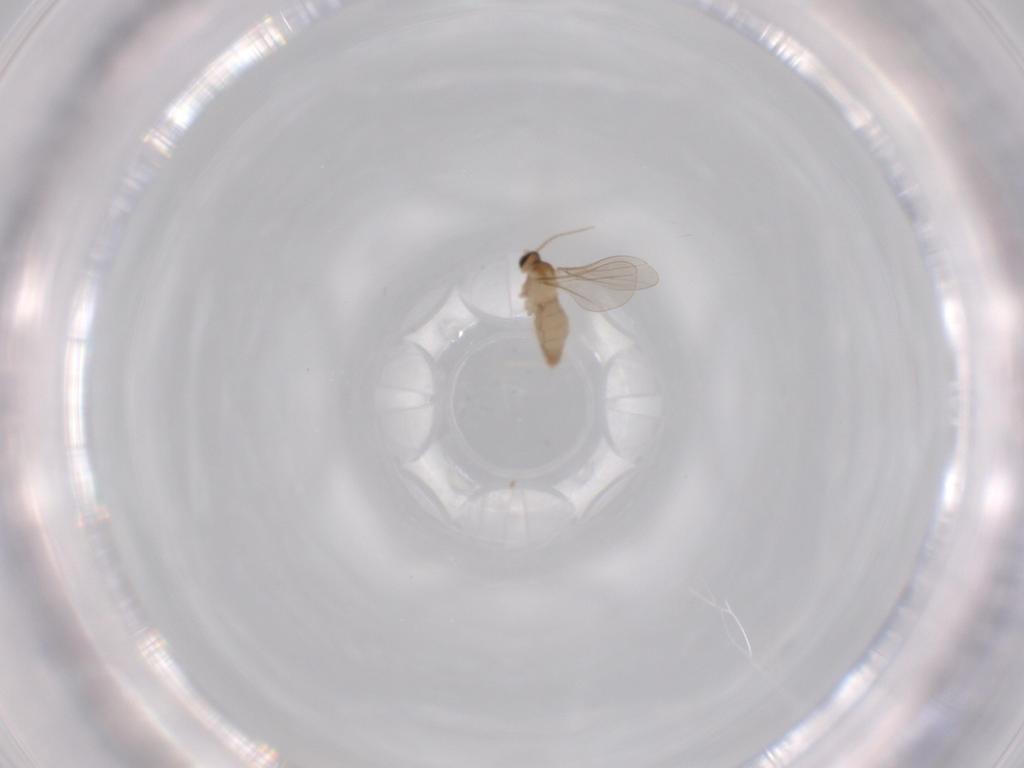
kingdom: Animalia
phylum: Arthropoda
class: Insecta
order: Diptera
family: Cecidomyiidae
